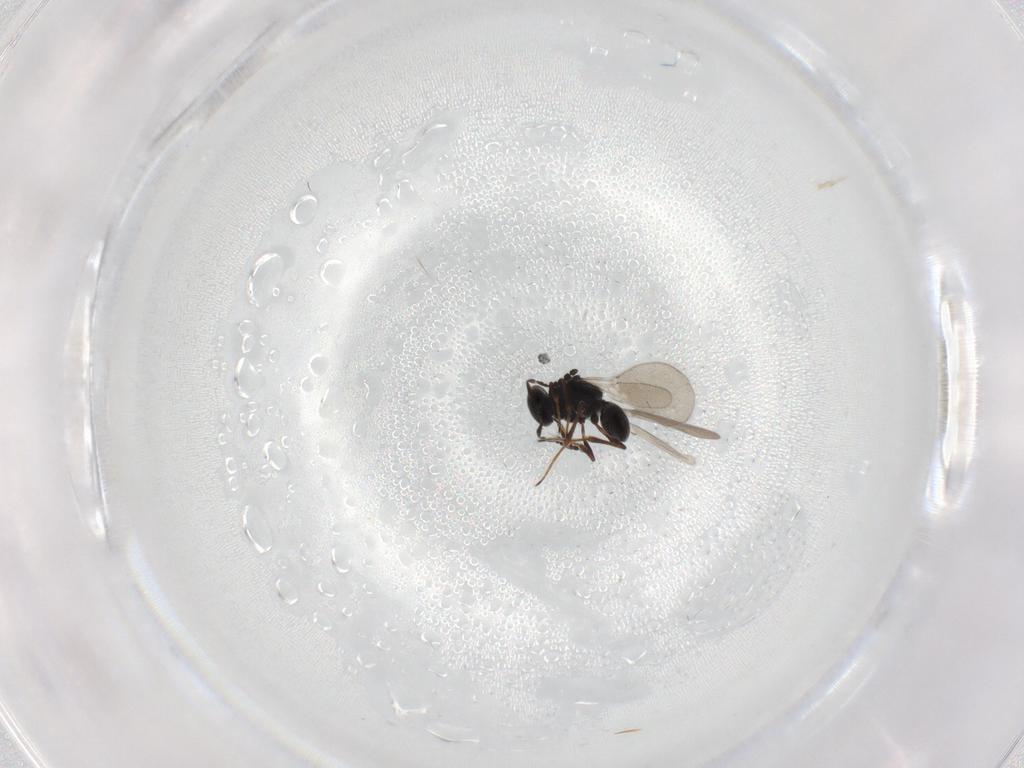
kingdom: Animalia
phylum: Arthropoda
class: Insecta
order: Hymenoptera
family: Platygastridae
